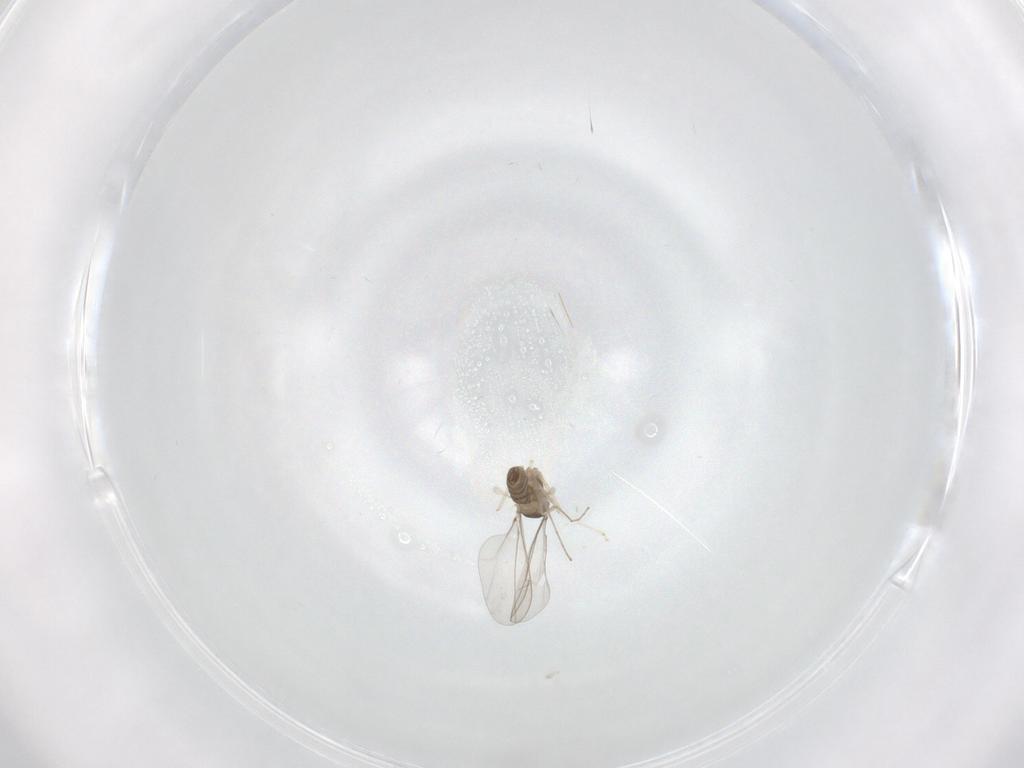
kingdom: Animalia
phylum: Arthropoda
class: Insecta
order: Diptera
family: Cecidomyiidae
